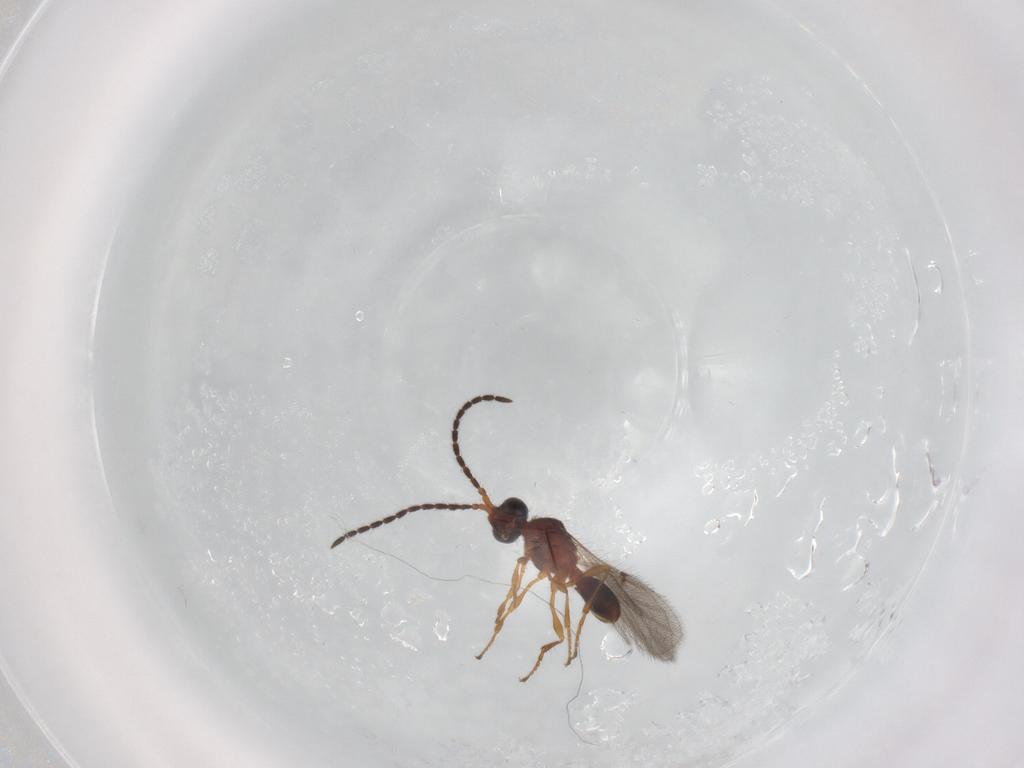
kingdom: Animalia
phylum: Arthropoda
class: Insecta
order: Hymenoptera
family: Diapriidae
